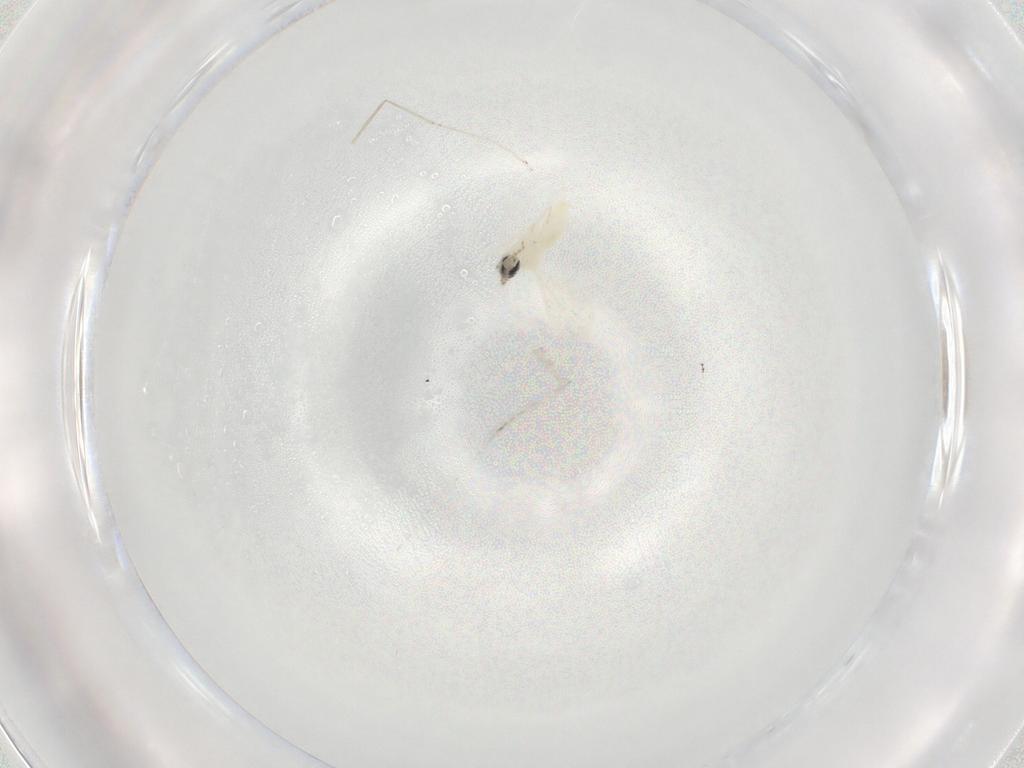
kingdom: Animalia
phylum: Arthropoda
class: Insecta
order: Diptera
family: Cecidomyiidae
